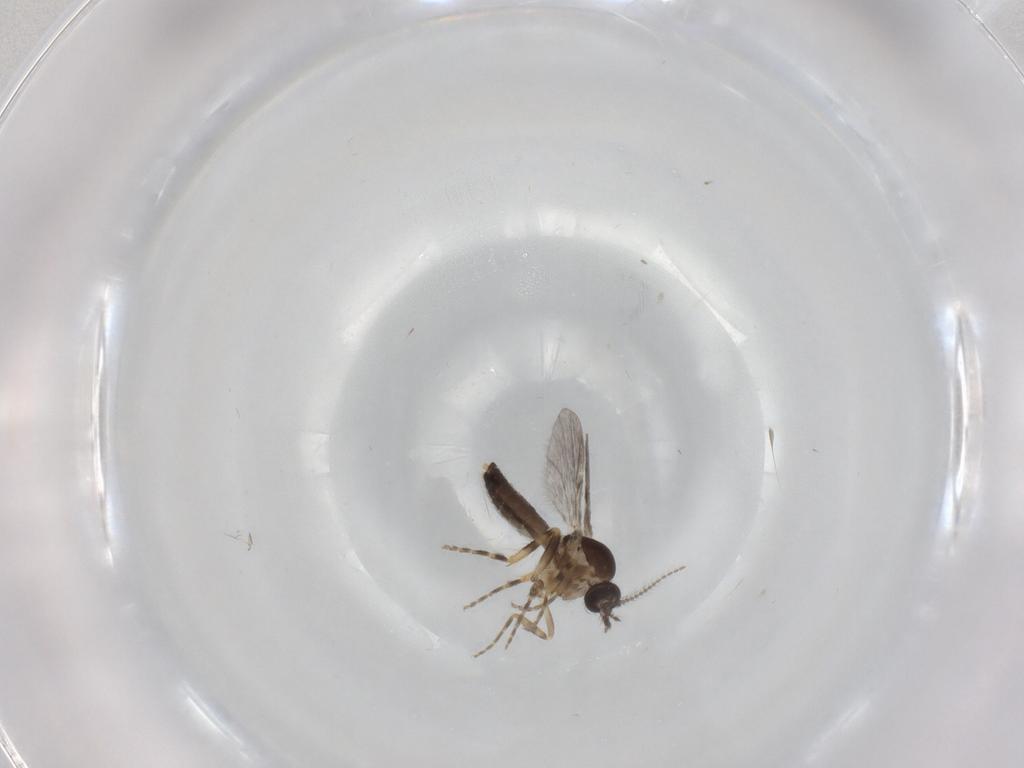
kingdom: Animalia
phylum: Arthropoda
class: Insecta
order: Diptera
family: Ceratopogonidae
